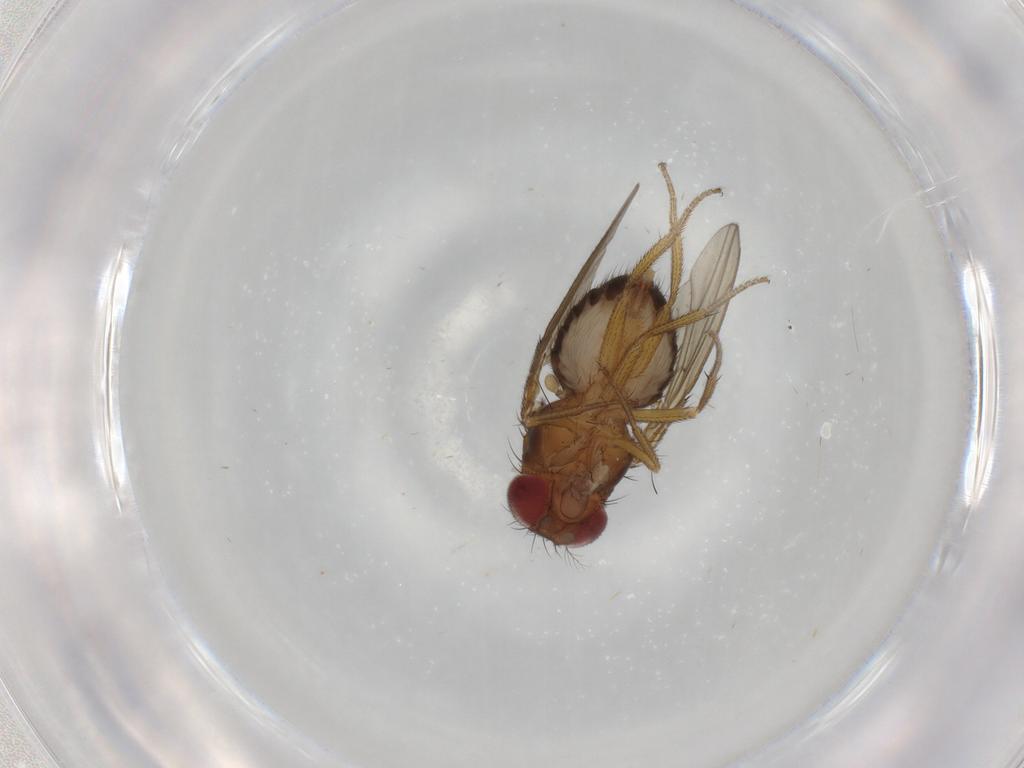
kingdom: Animalia
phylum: Arthropoda
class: Insecta
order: Diptera
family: Drosophilidae
